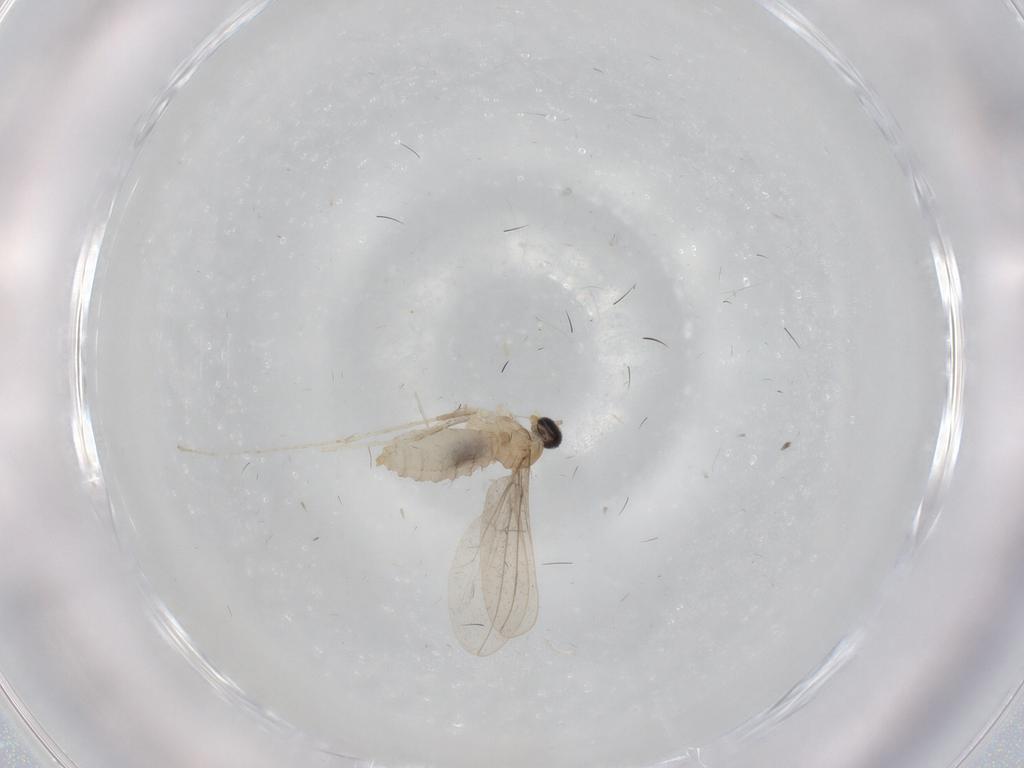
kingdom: Animalia
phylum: Arthropoda
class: Insecta
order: Diptera
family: Cecidomyiidae
